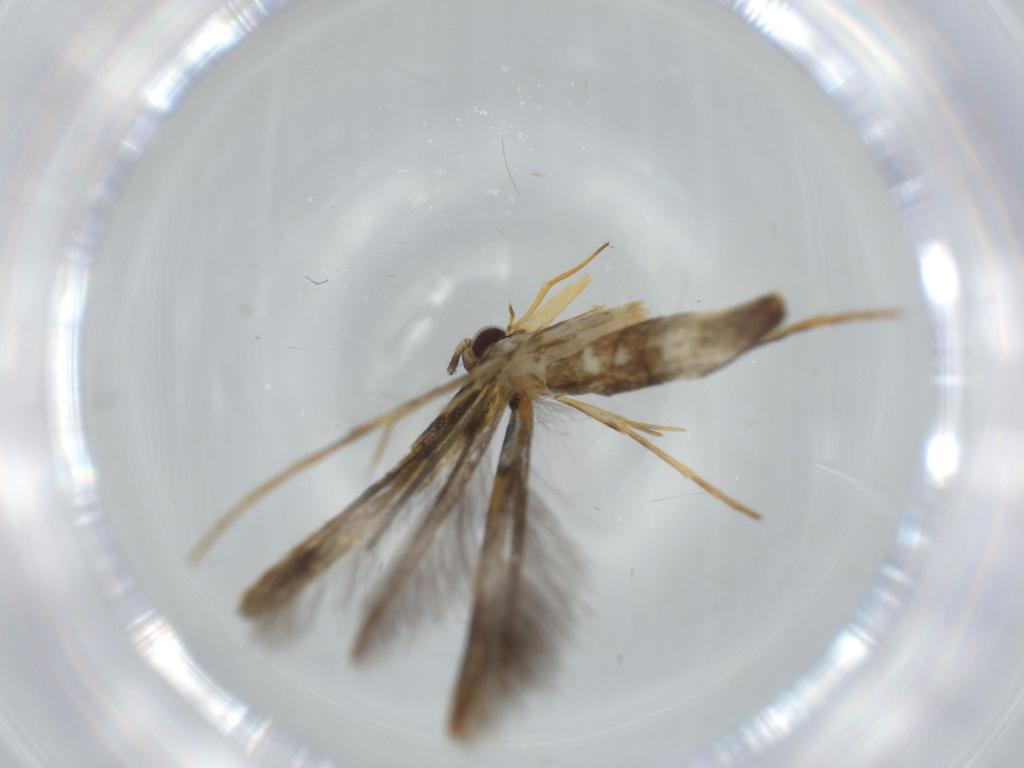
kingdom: Animalia
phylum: Arthropoda
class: Insecta
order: Lepidoptera
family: Gracillariidae
